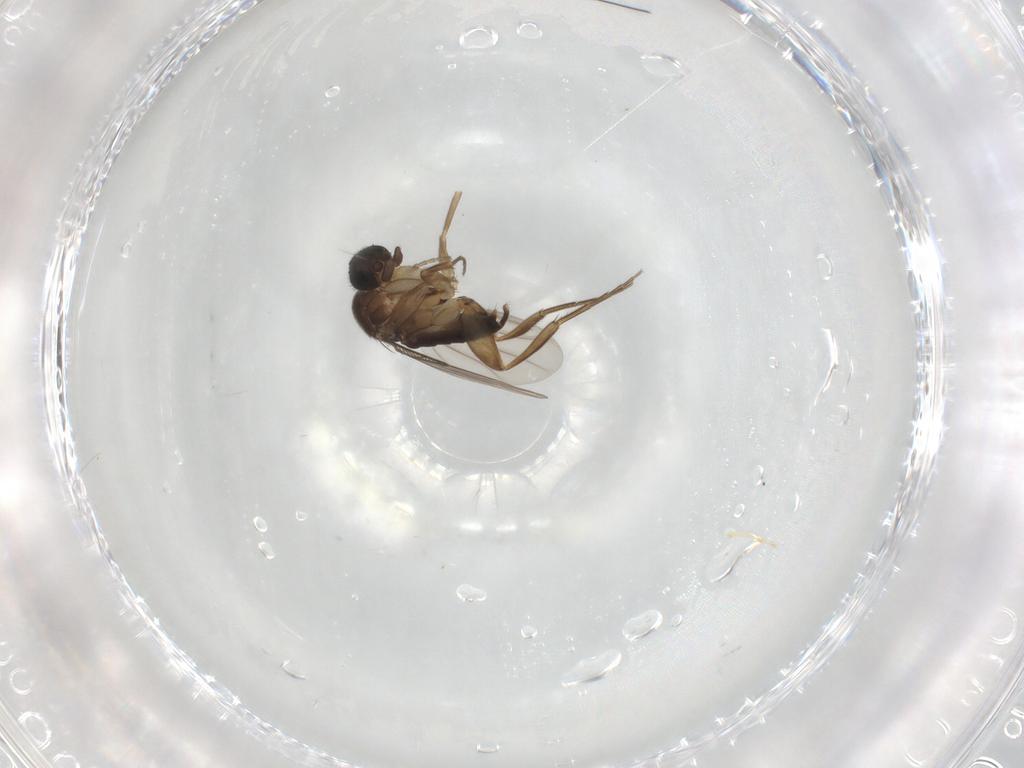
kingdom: Animalia
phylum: Arthropoda
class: Insecta
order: Diptera
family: Phoridae
